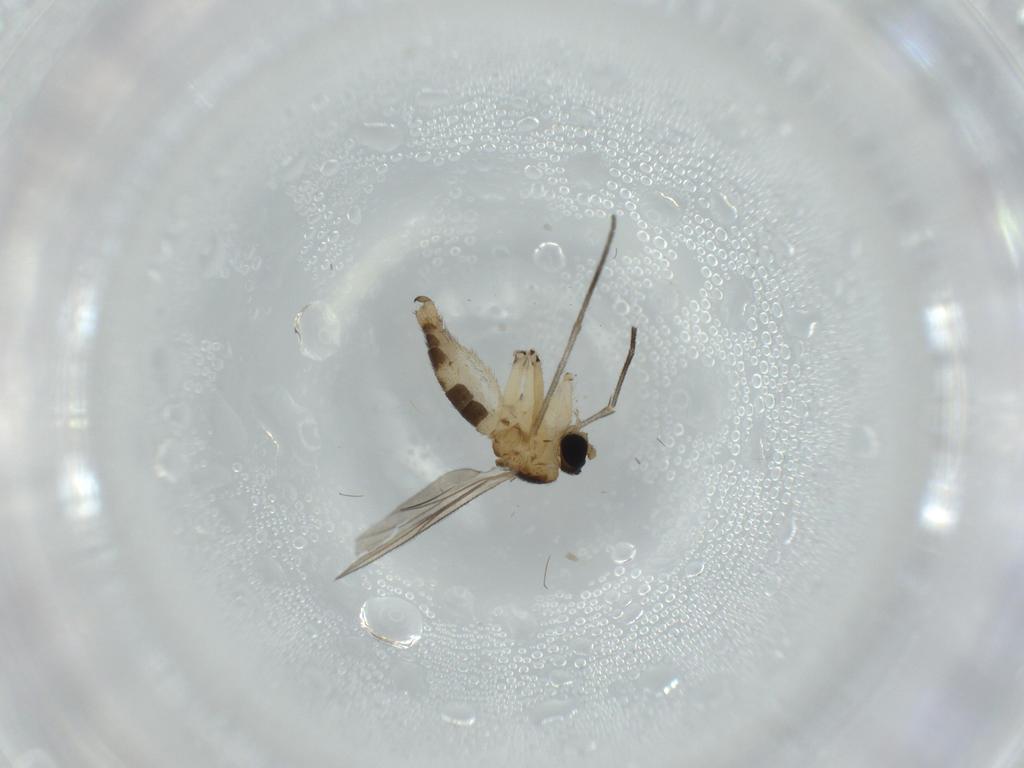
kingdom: Animalia
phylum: Arthropoda
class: Insecta
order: Diptera
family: Sciaridae
